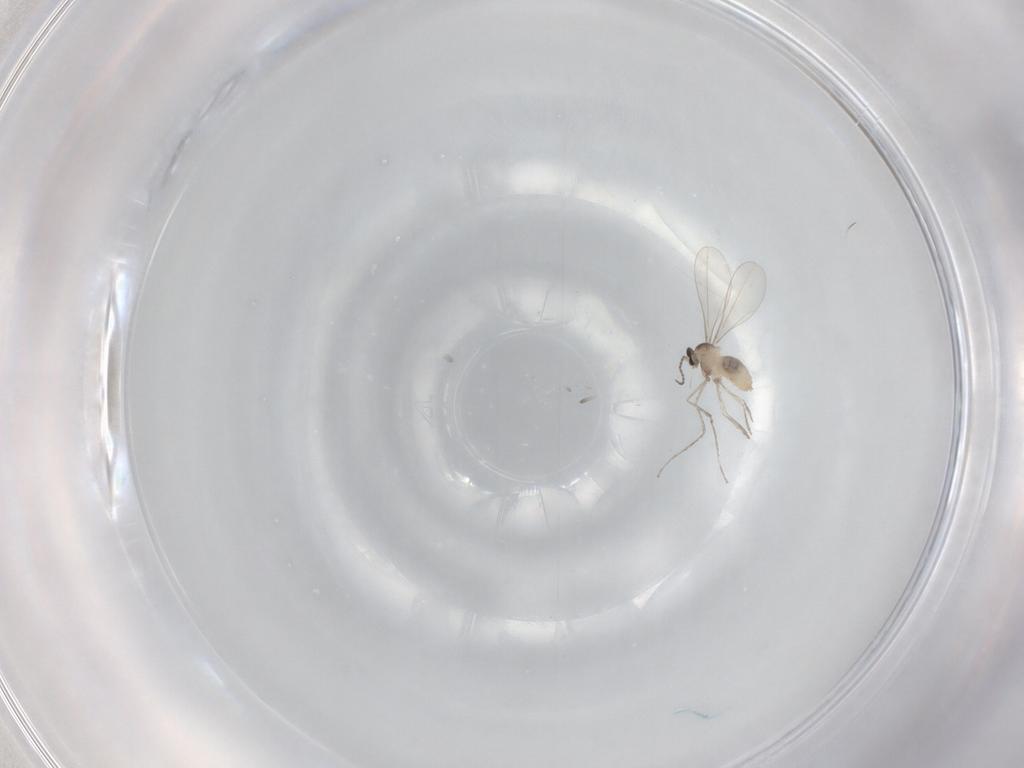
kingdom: Animalia
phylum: Arthropoda
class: Insecta
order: Diptera
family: Cecidomyiidae
